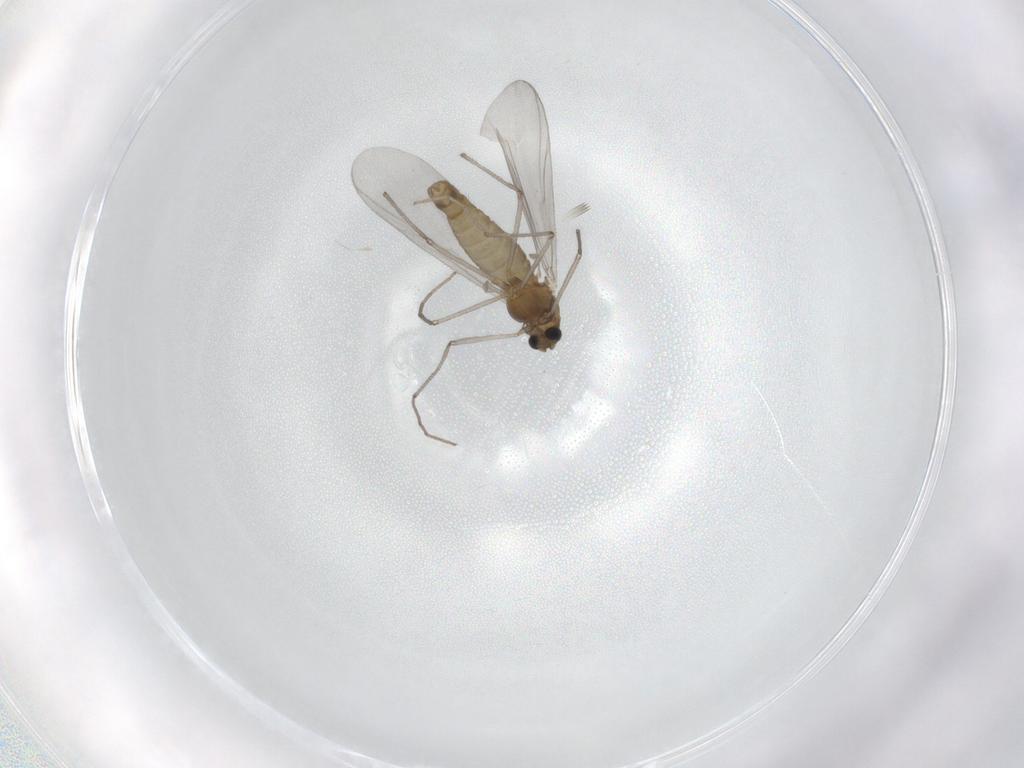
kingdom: Animalia
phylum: Arthropoda
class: Insecta
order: Diptera
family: Chironomidae
